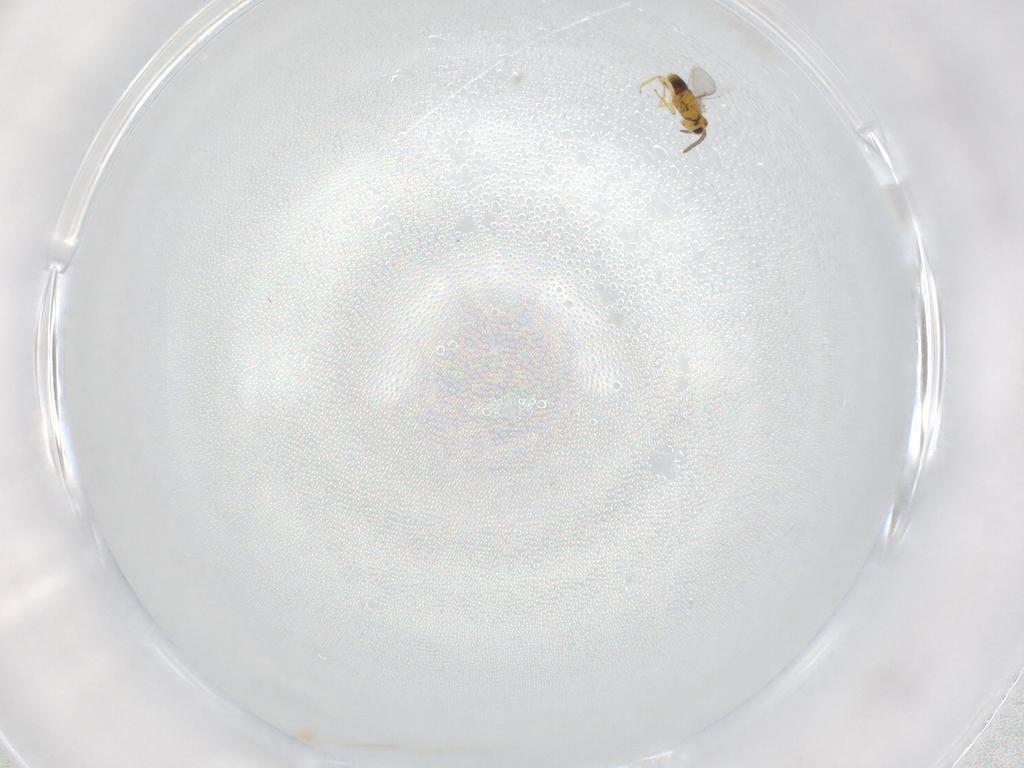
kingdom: Animalia
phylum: Arthropoda
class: Insecta
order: Hymenoptera
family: Aphelinidae
